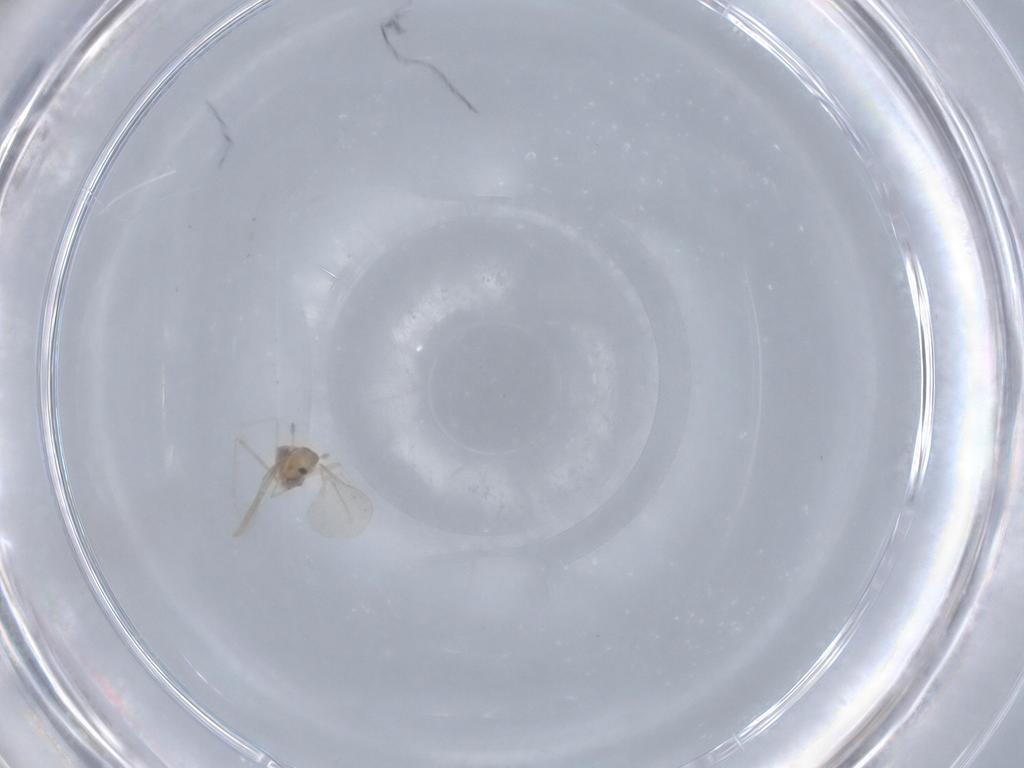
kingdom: Animalia
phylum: Arthropoda
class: Insecta
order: Diptera
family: Cecidomyiidae
